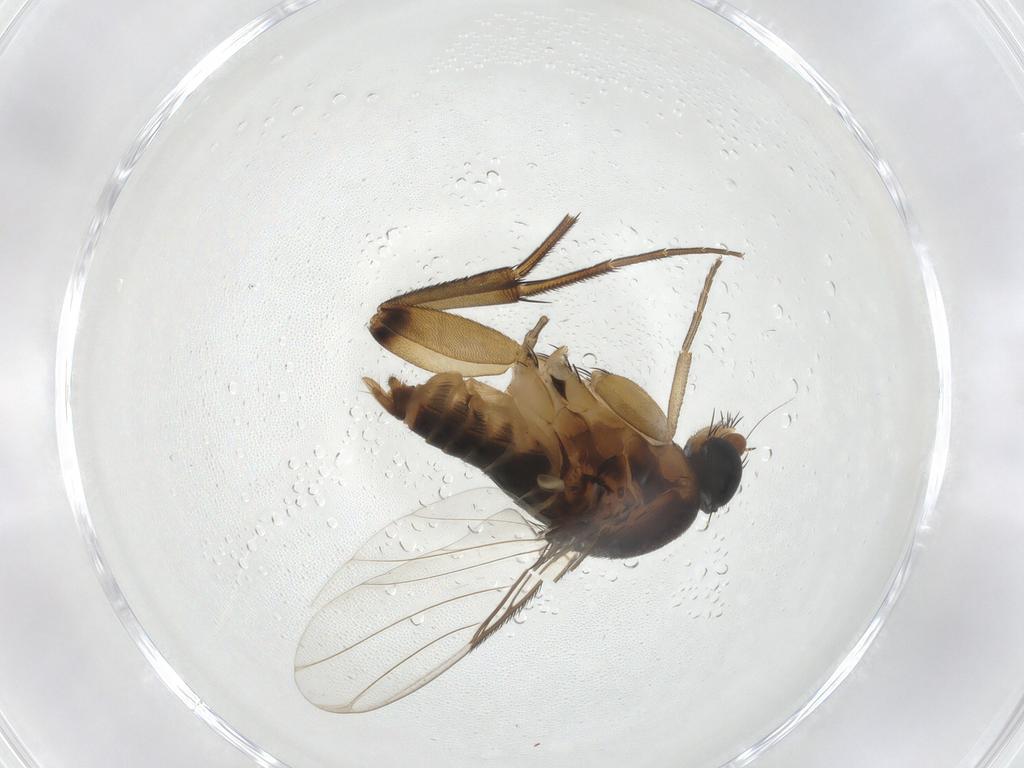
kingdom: Animalia
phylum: Arthropoda
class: Insecta
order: Diptera
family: Phoridae
